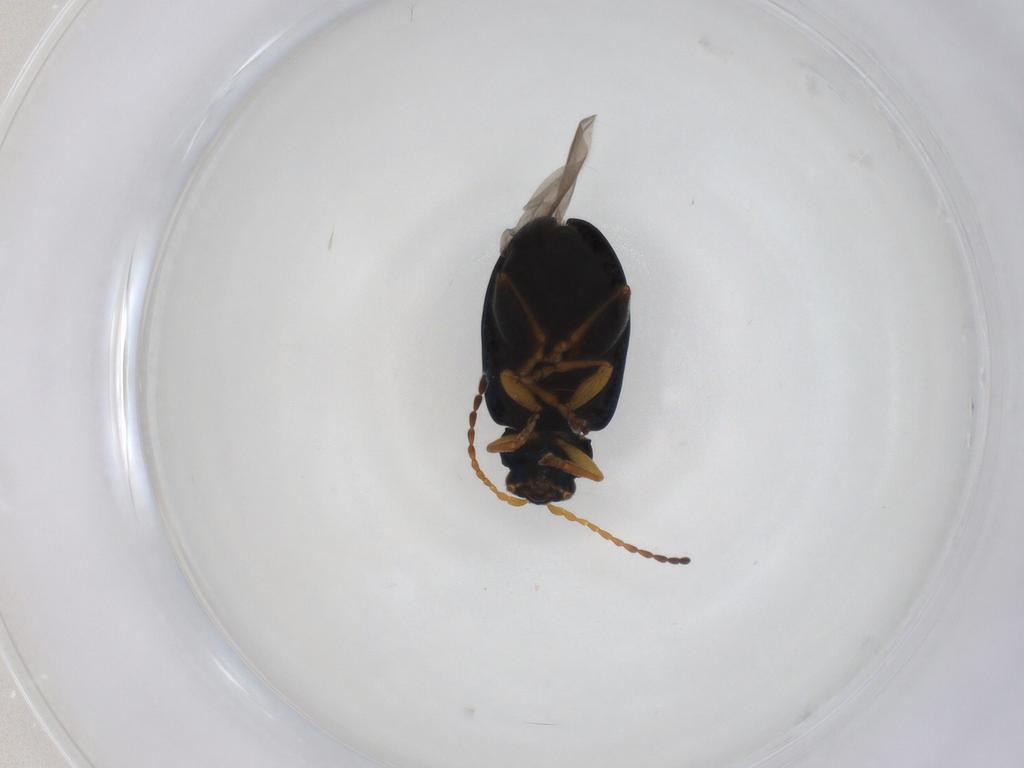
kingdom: Animalia
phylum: Arthropoda
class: Insecta
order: Coleoptera
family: Chrysomelidae
